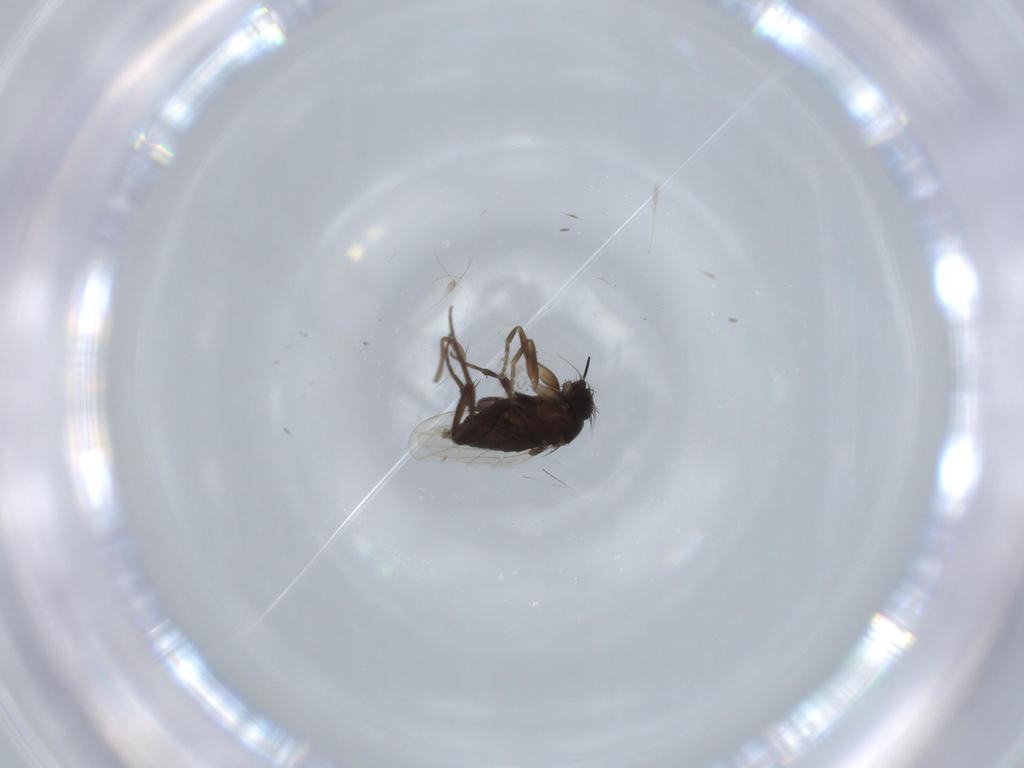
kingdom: Animalia
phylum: Arthropoda
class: Insecta
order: Diptera
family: Phoridae
